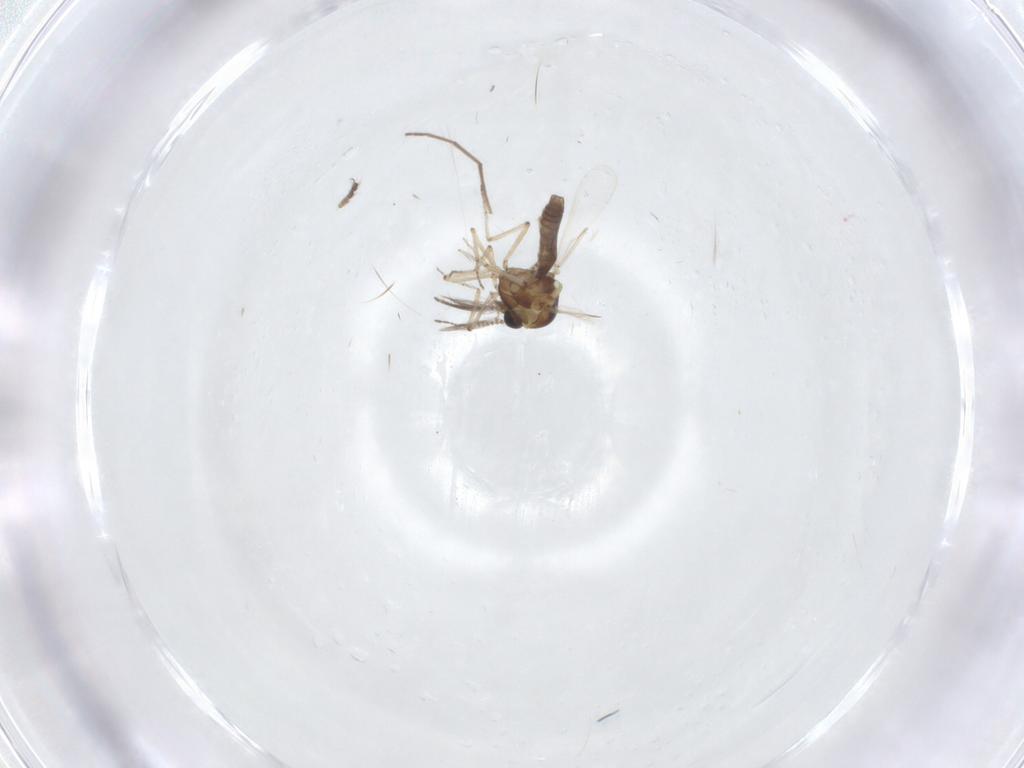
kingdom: Animalia
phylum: Arthropoda
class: Insecta
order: Diptera
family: Ceratopogonidae
